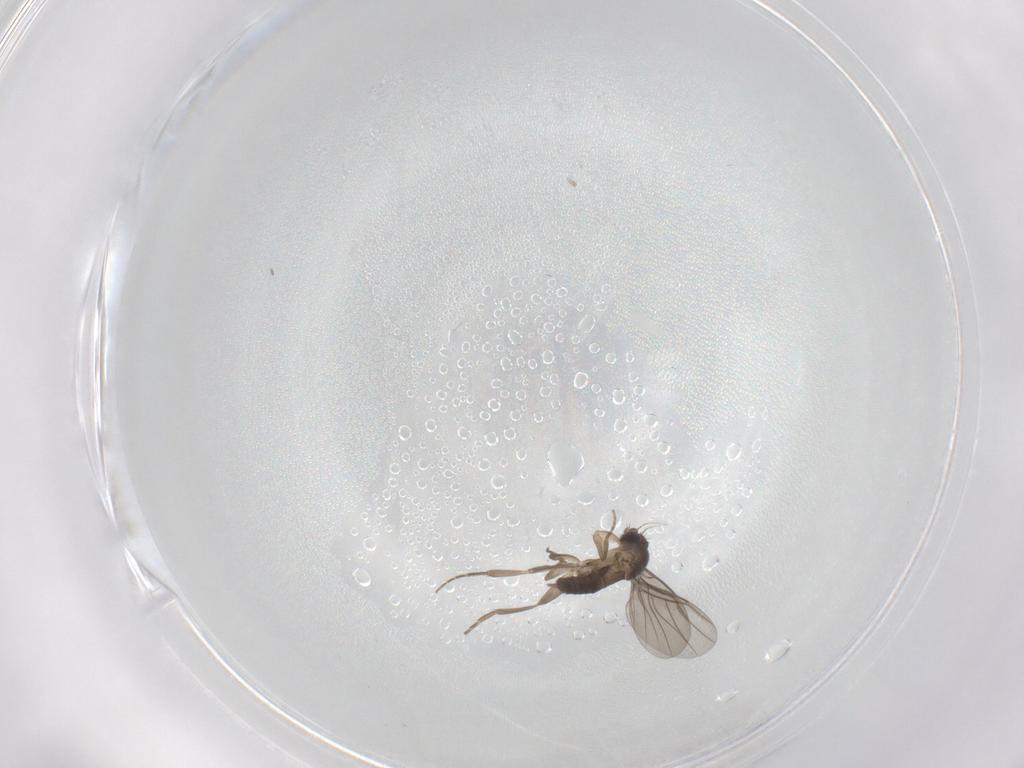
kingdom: Animalia
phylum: Arthropoda
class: Insecta
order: Diptera
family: Phoridae
